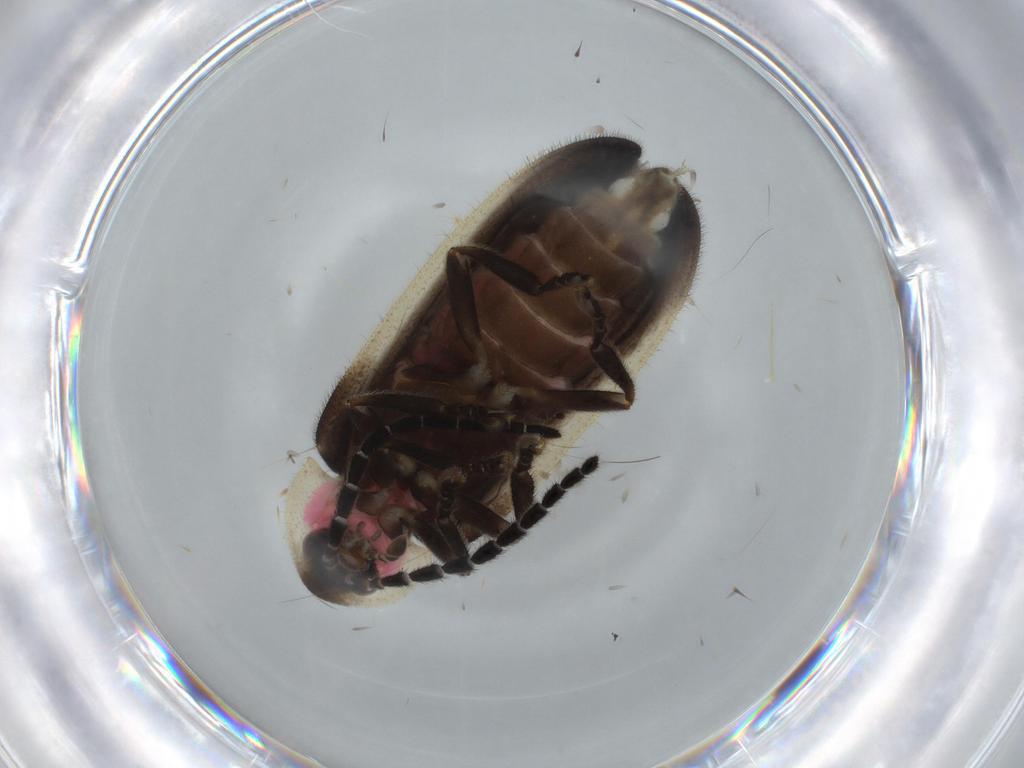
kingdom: Animalia
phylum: Arthropoda
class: Insecta
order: Coleoptera
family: Lampyridae
